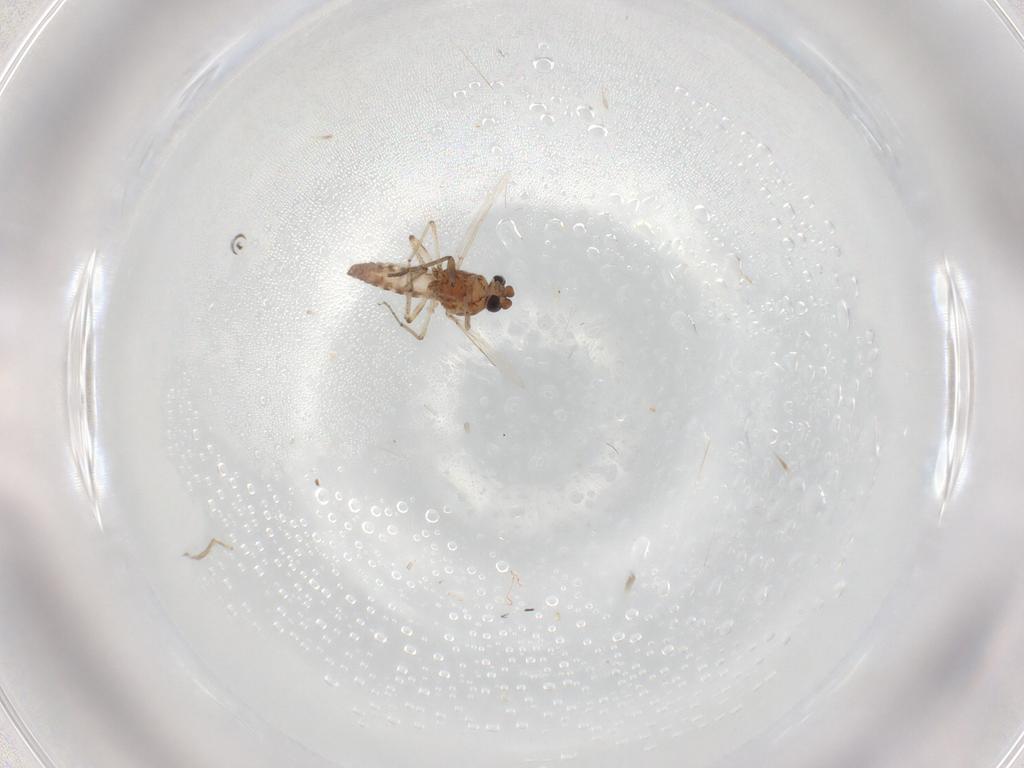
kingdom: Animalia
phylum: Arthropoda
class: Insecta
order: Diptera
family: Ceratopogonidae
